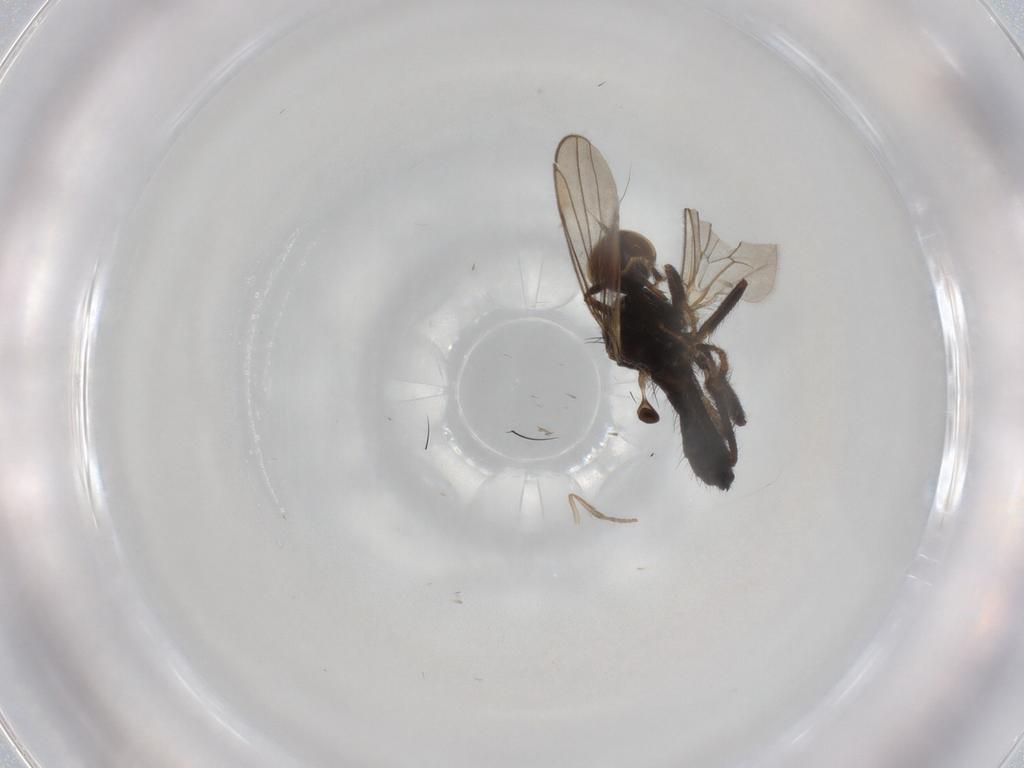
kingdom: Animalia
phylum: Arthropoda
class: Insecta
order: Diptera
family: Hybotidae
